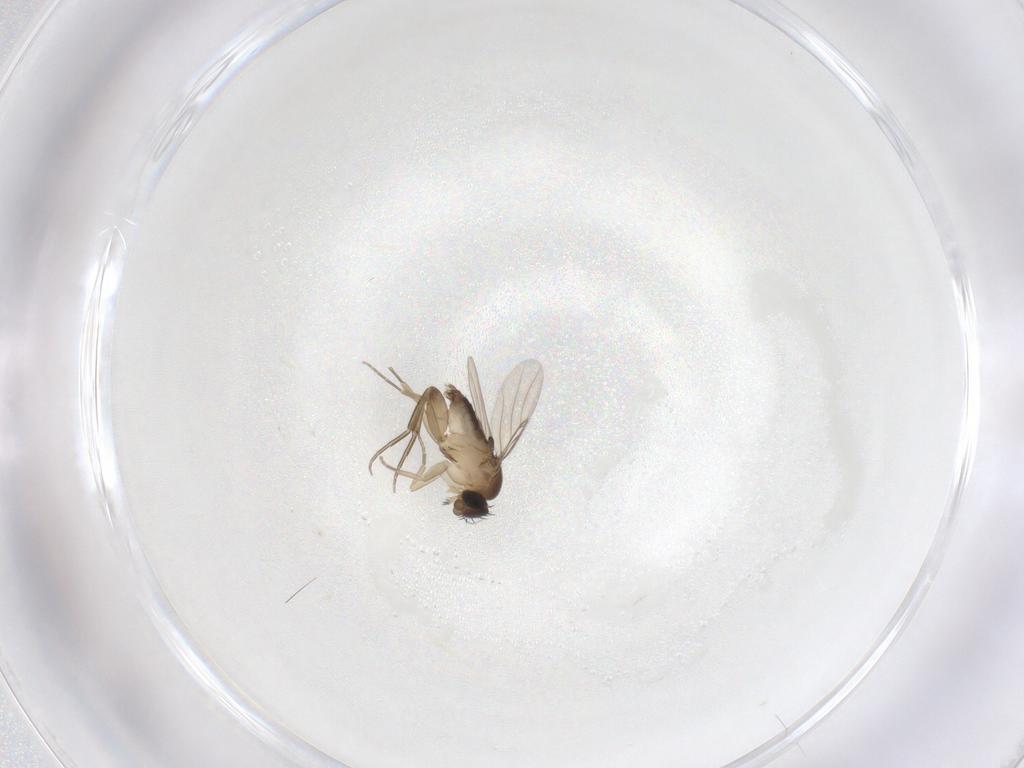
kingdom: Animalia
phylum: Arthropoda
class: Insecta
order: Diptera
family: Phoridae
